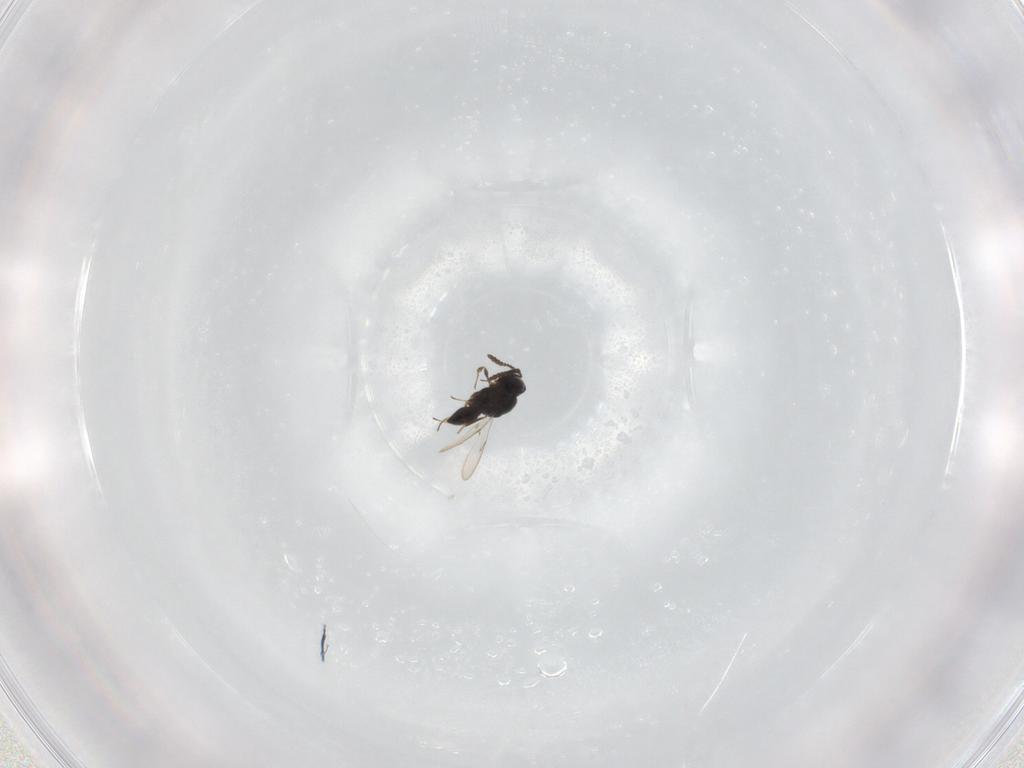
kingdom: Animalia
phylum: Arthropoda
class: Insecta
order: Hymenoptera
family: Scelionidae
